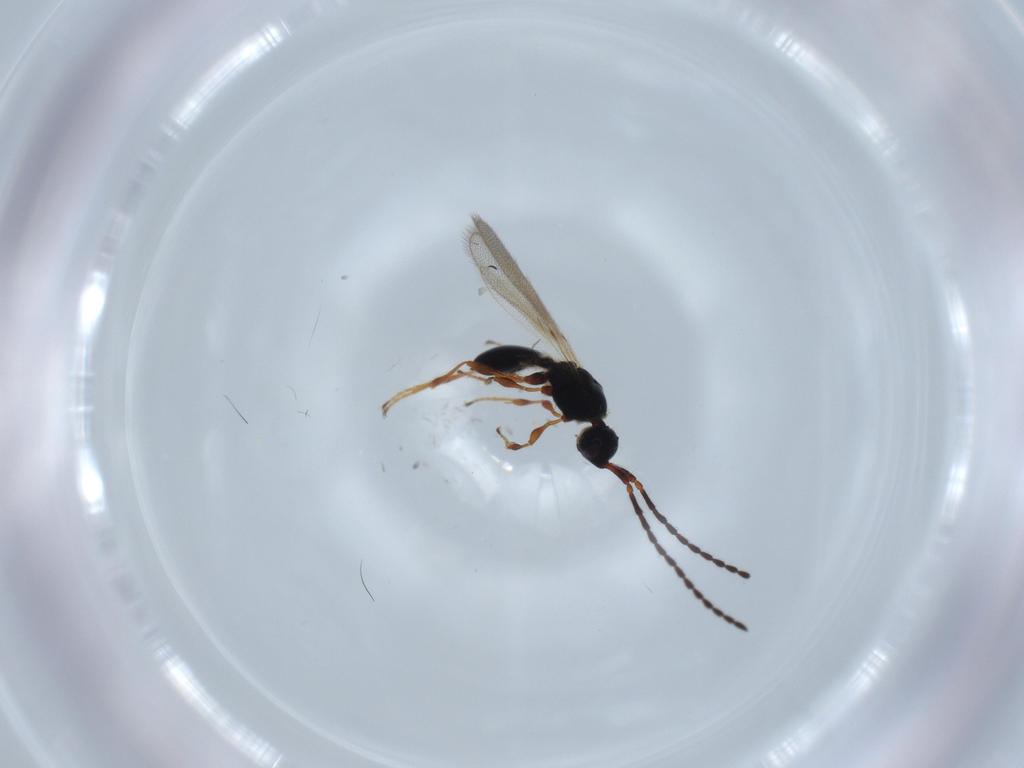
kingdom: Animalia
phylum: Arthropoda
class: Insecta
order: Hymenoptera
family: Diapriidae
